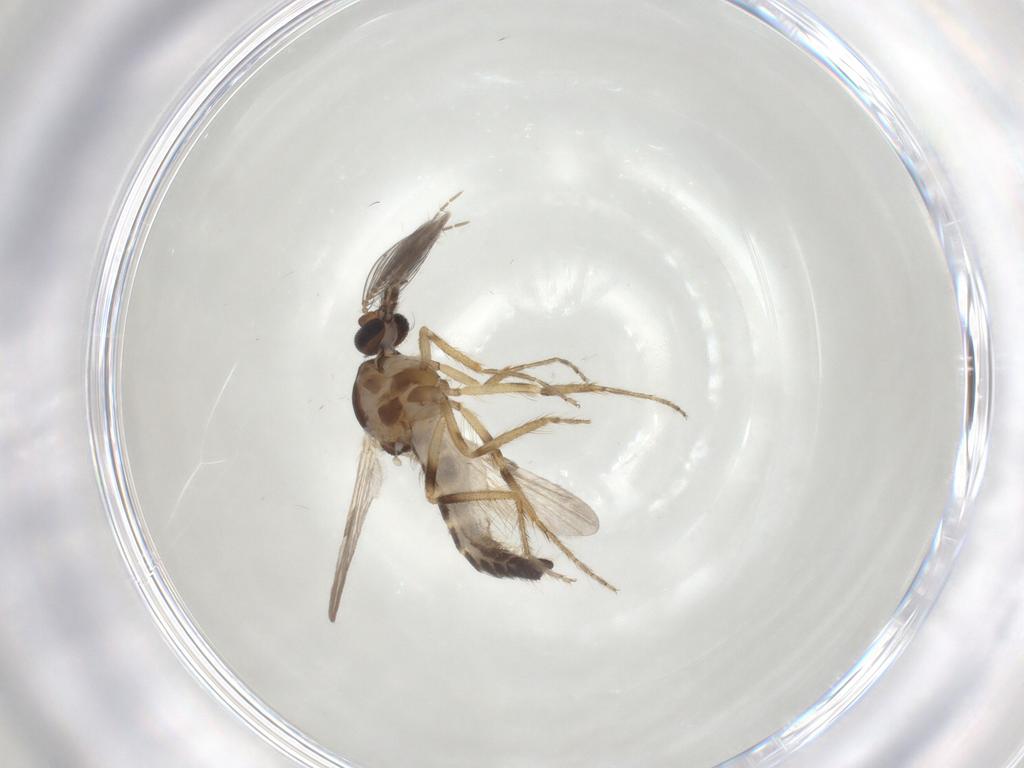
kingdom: Animalia
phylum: Arthropoda
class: Insecta
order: Diptera
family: Ceratopogonidae
